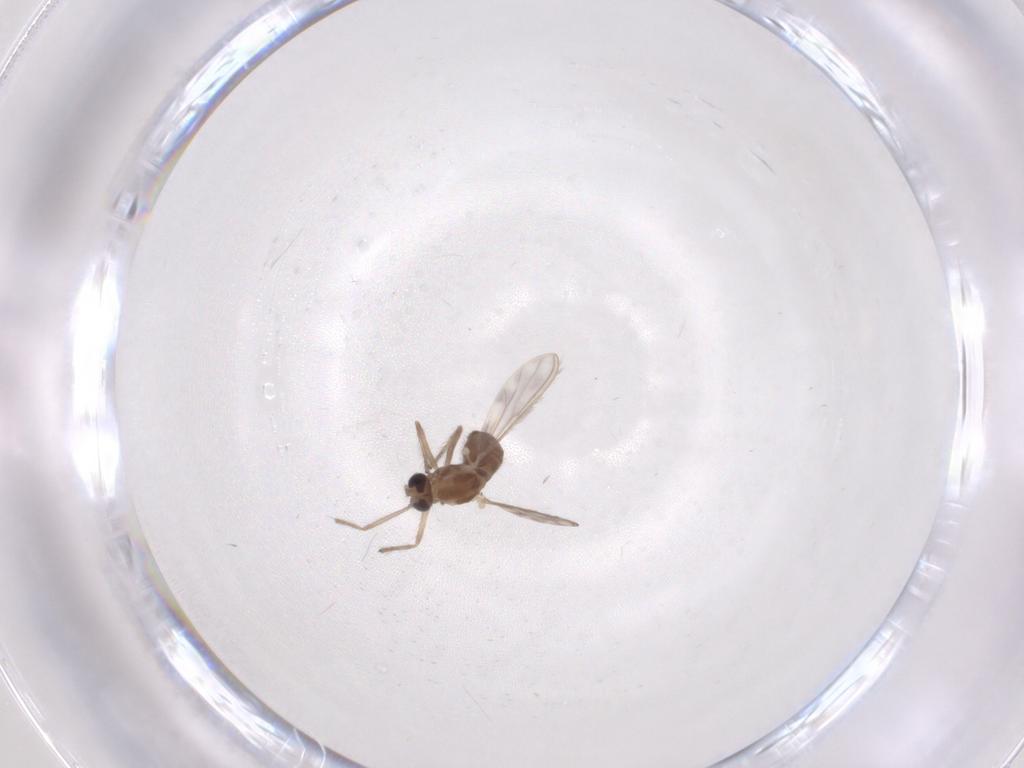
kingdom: Animalia
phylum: Arthropoda
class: Insecta
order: Diptera
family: Chironomidae
